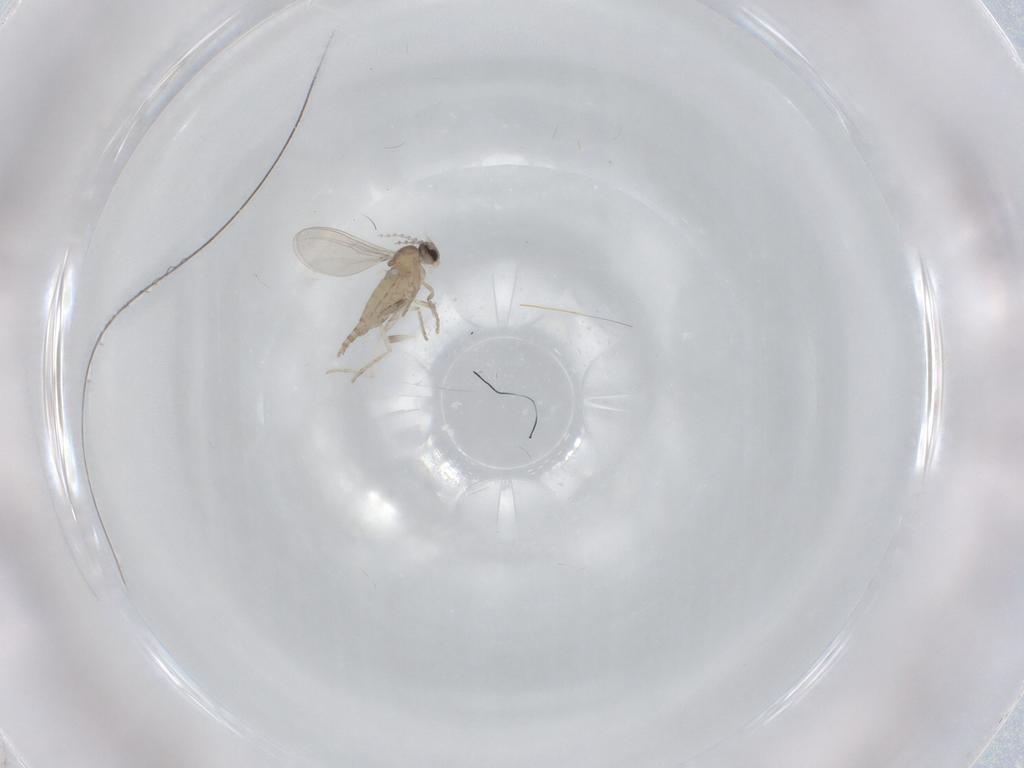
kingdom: Animalia
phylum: Arthropoda
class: Insecta
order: Diptera
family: Cecidomyiidae
